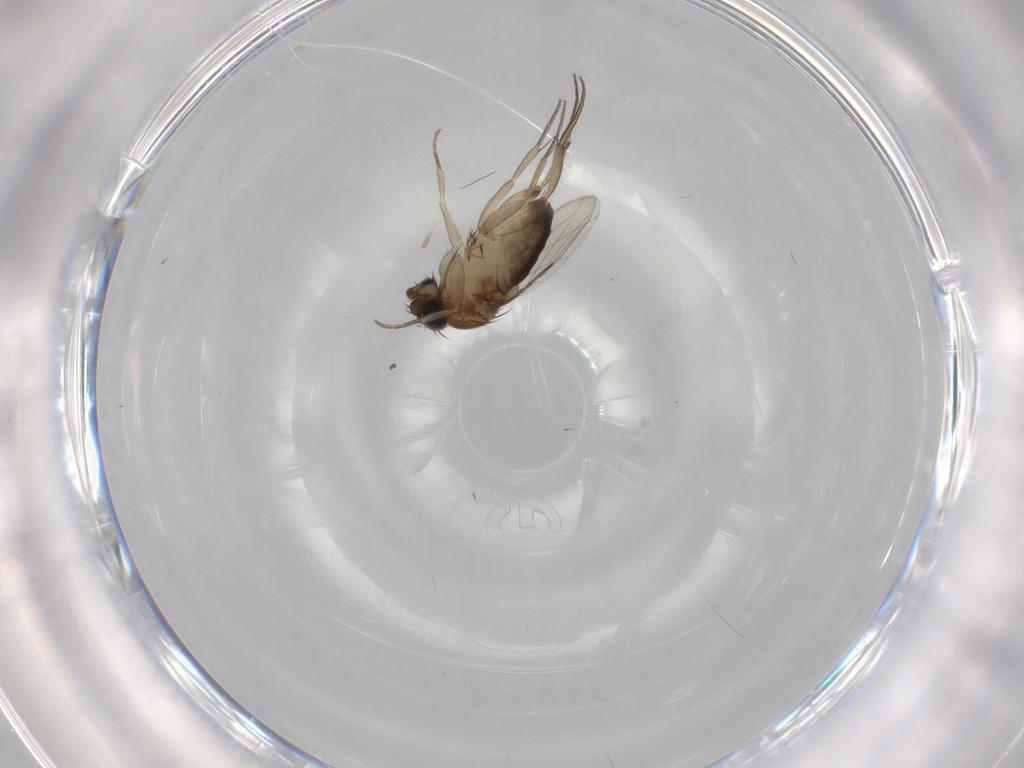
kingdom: Animalia
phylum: Arthropoda
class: Insecta
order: Diptera
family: Phoridae
